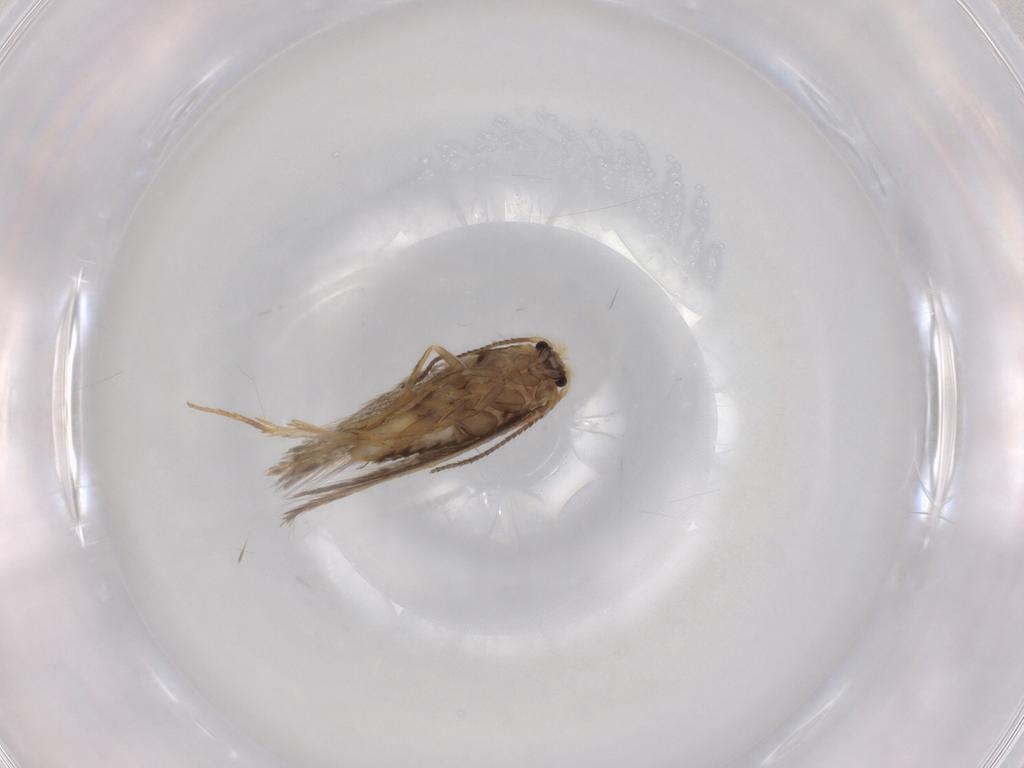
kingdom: Animalia
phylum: Arthropoda
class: Insecta
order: Lepidoptera
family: Nepticulidae
